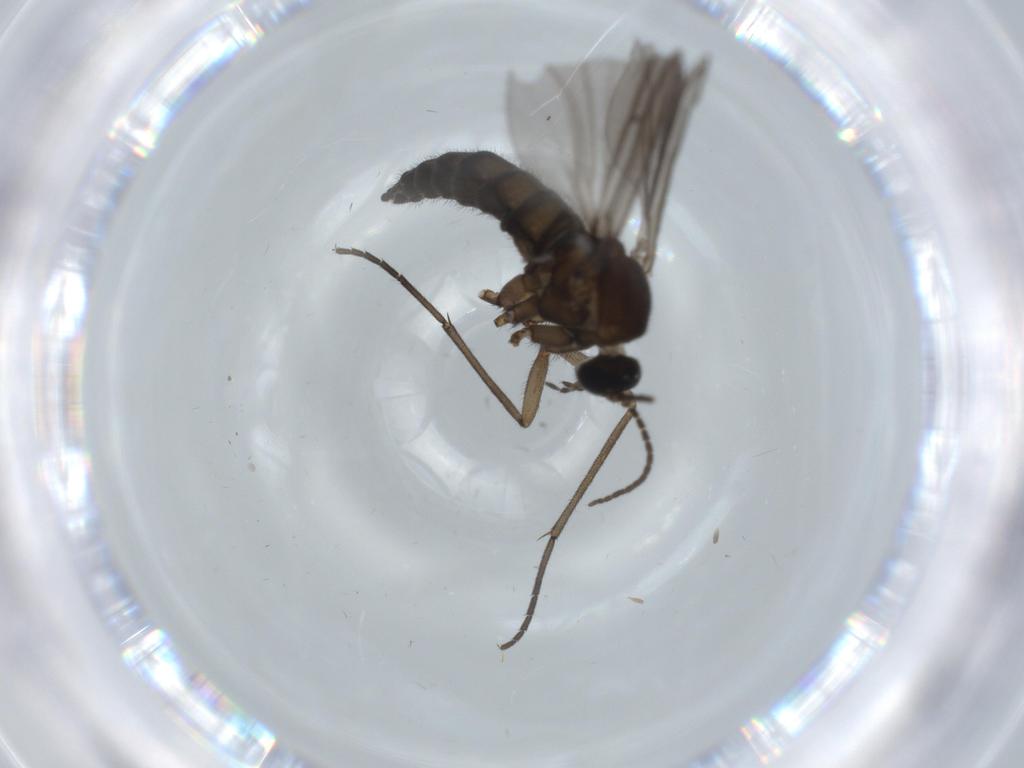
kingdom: Animalia
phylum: Arthropoda
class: Insecta
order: Diptera
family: Sciaridae
